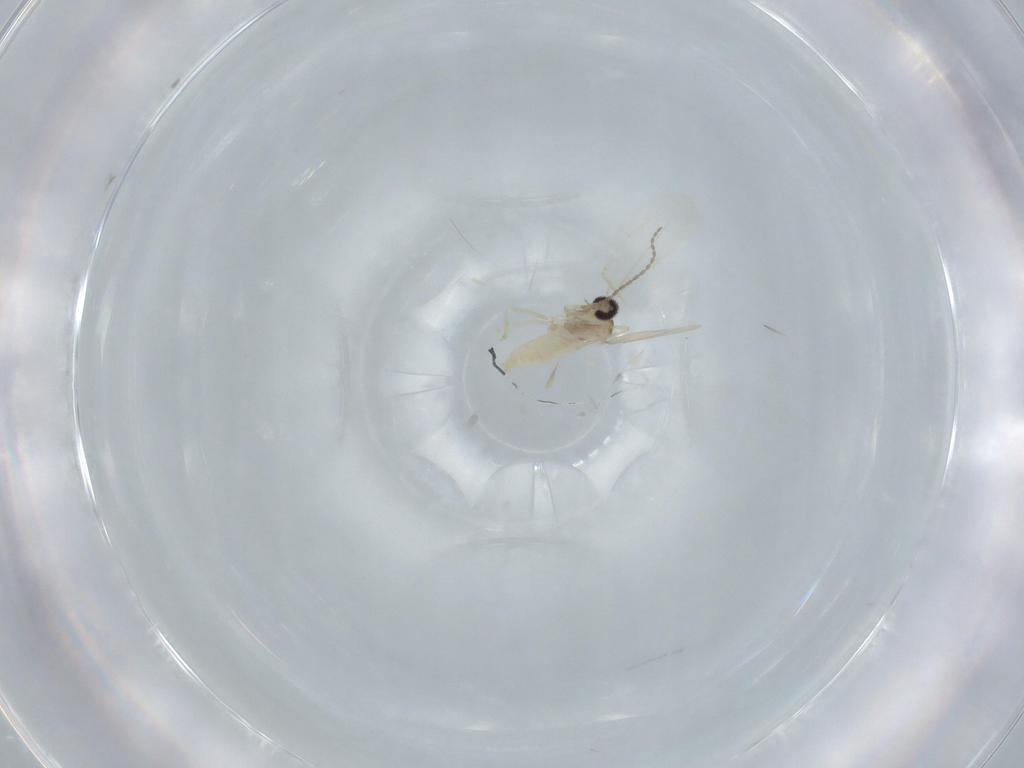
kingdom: Animalia
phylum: Arthropoda
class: Insecta
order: Diptera
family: Cecidomyiidae
